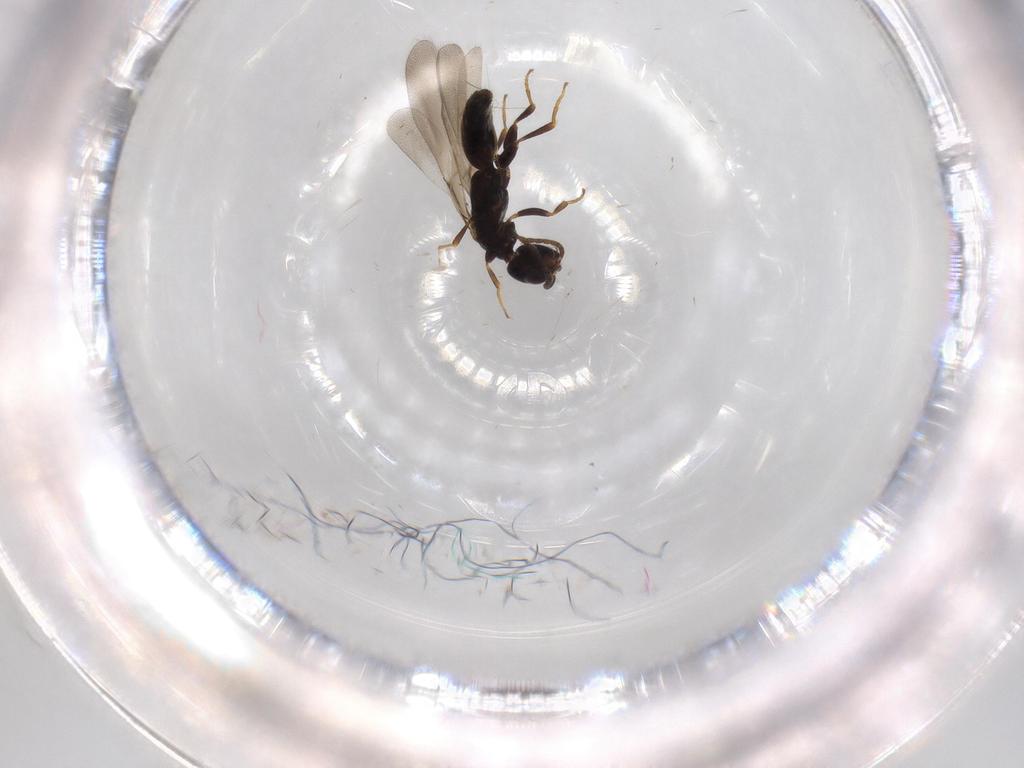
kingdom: Animalia
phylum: Arthropoda
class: Insecta
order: Hymenoptera
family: Bethylidae
